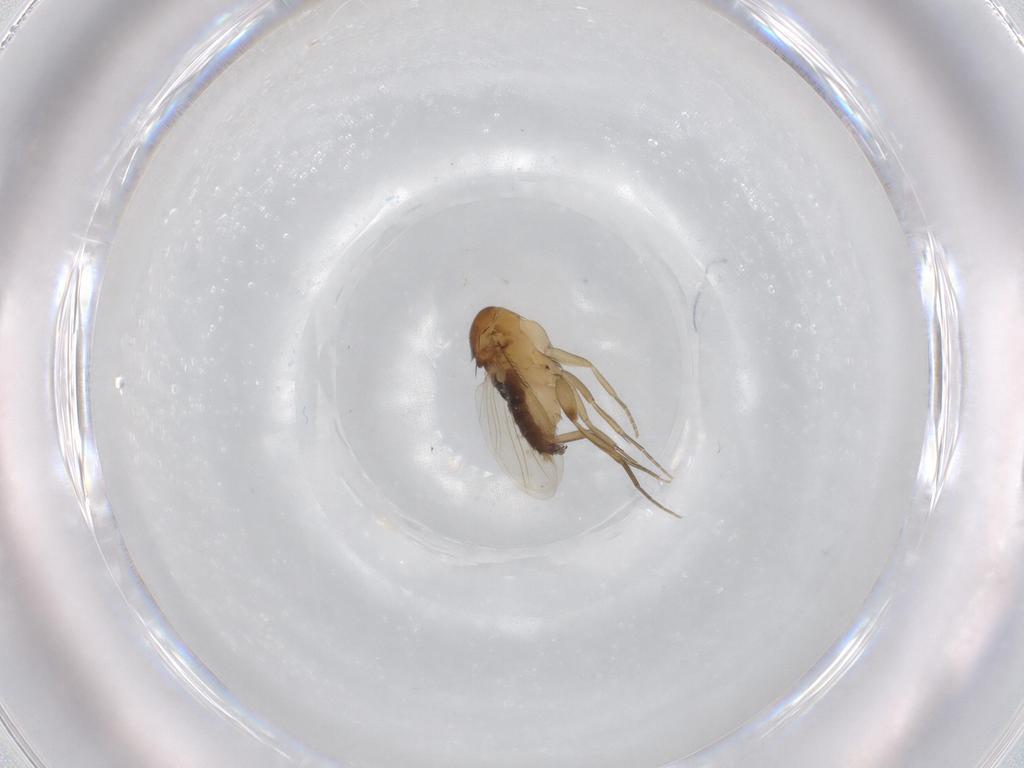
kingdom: Animalia
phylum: Arthropoda
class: Insecta
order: Diptera
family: Phoridae
